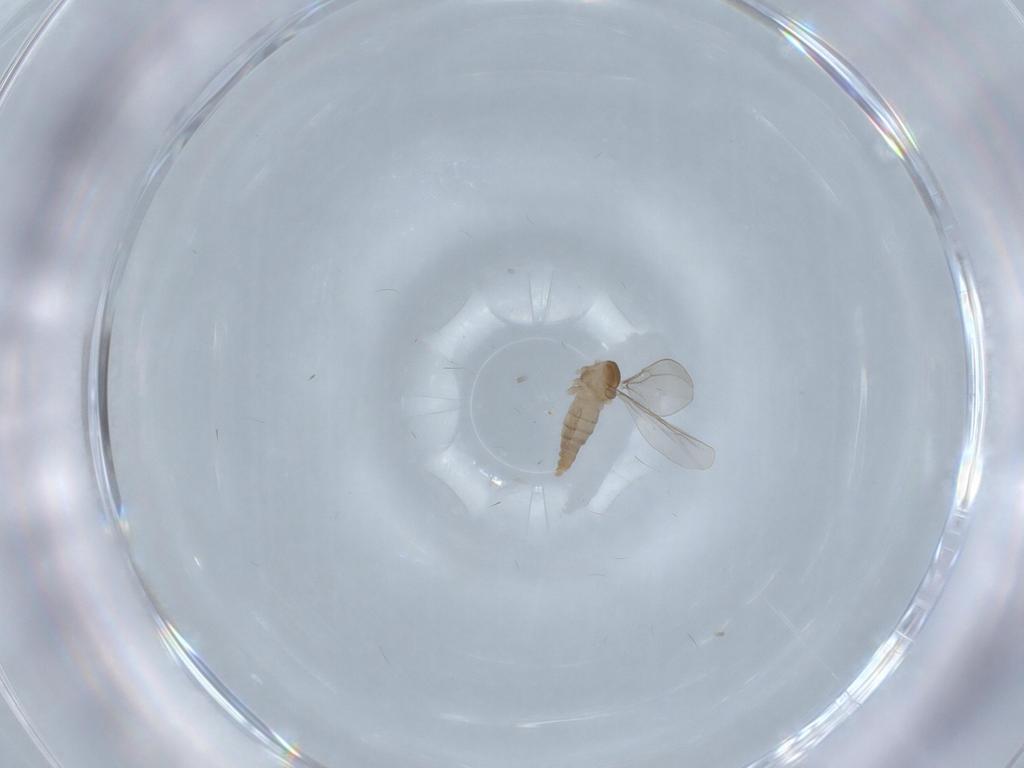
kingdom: Animalia
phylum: Arthropoda
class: Insecta
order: Diptera
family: Cecidomyiidae
